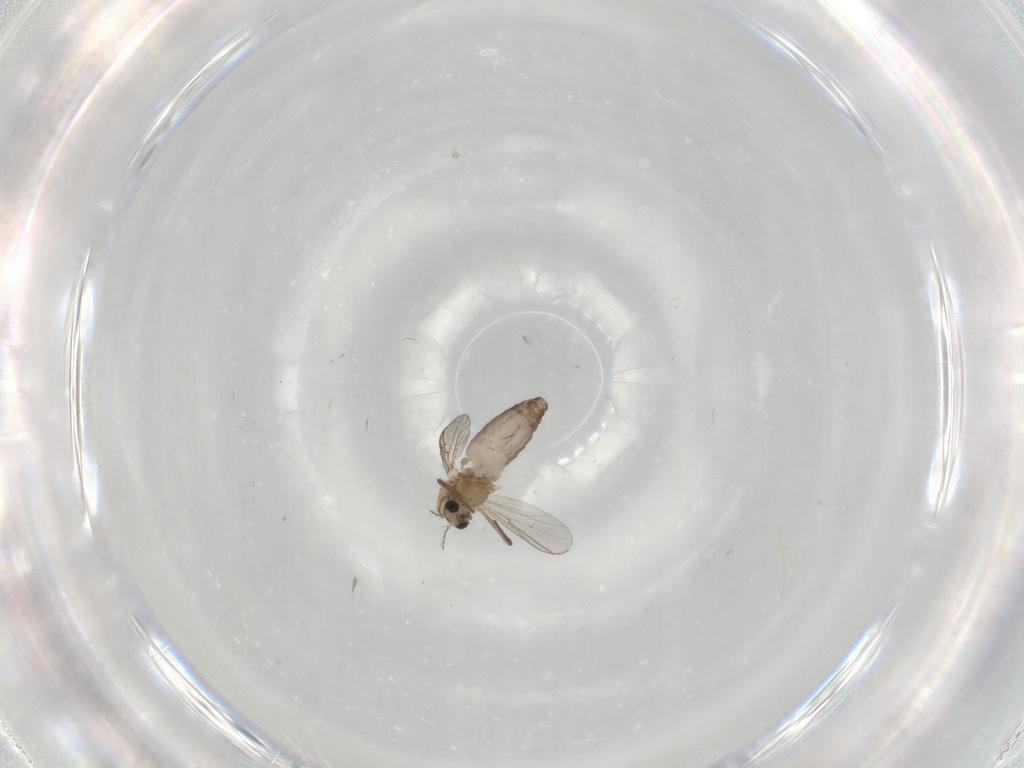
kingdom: Animalia
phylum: Arthropoda
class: Insecta
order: Diptera
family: Chironomidae
